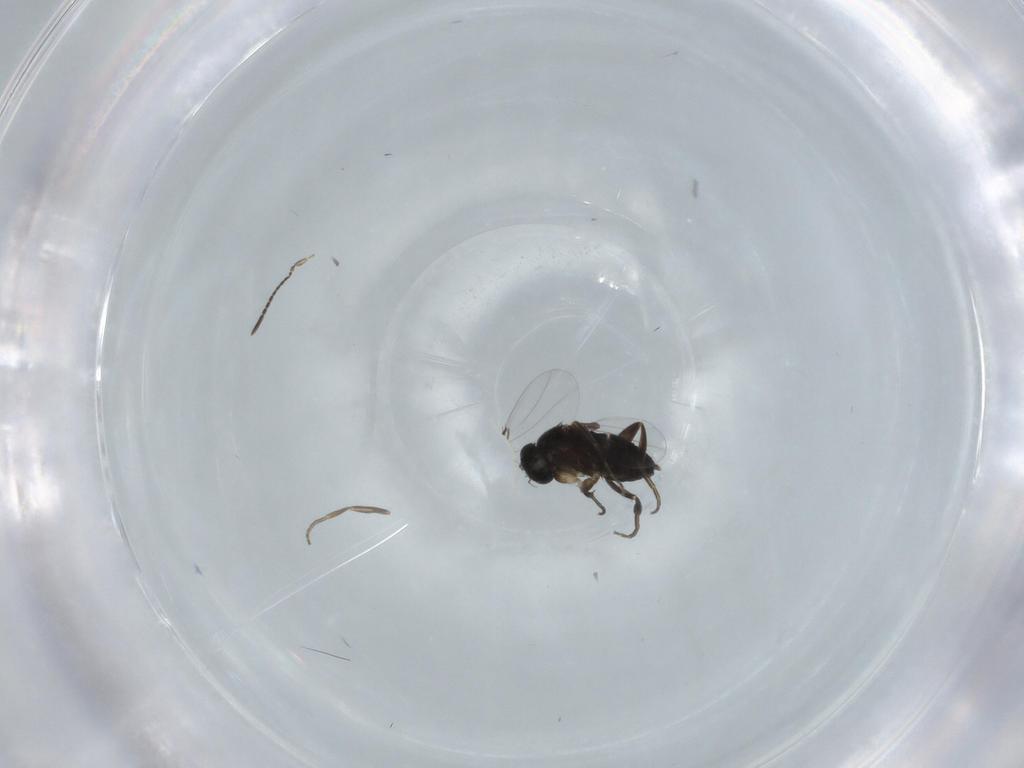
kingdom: Animalia
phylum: Arthropoda
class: Insecta
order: Diptera
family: Phoridae
